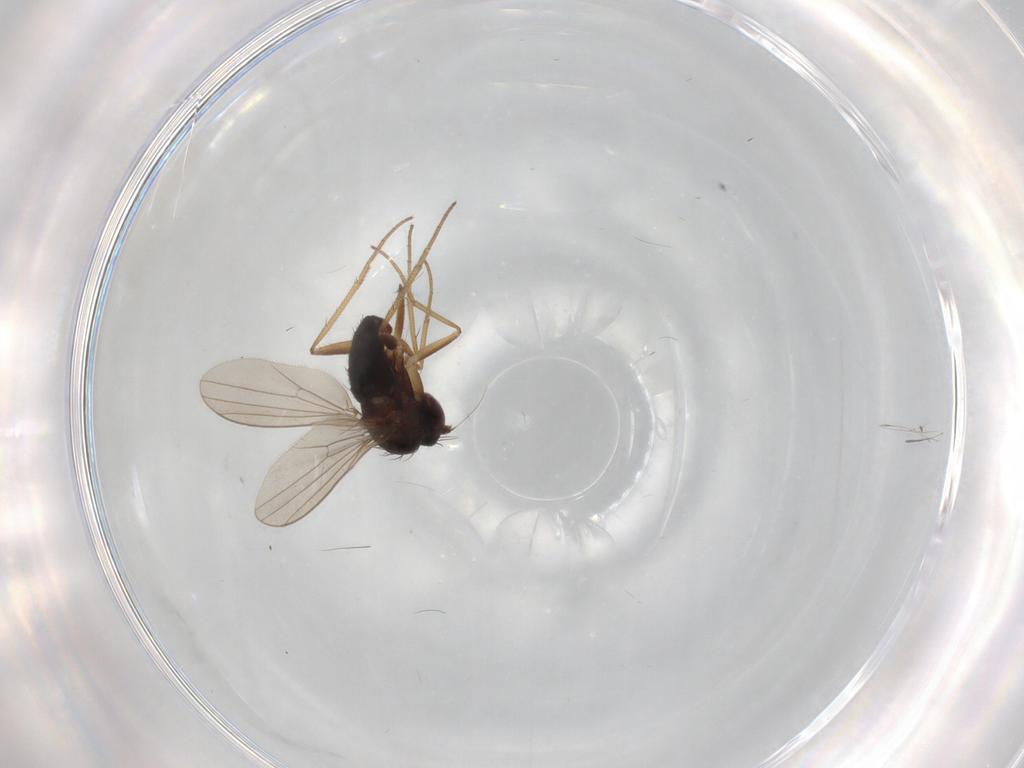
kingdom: Animalia
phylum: Arthropoda
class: Insecta
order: Diptera
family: Dolichopodidae
